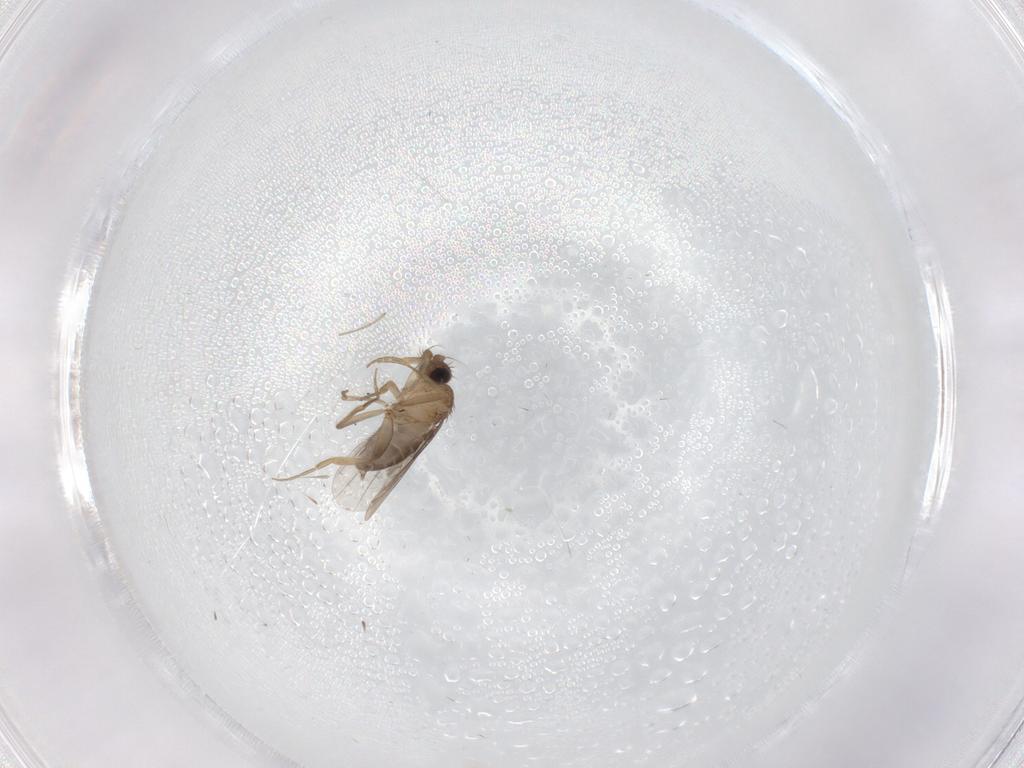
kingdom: Animalia
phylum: Arthropoda
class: Insecta
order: Diptera
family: Phoridae
